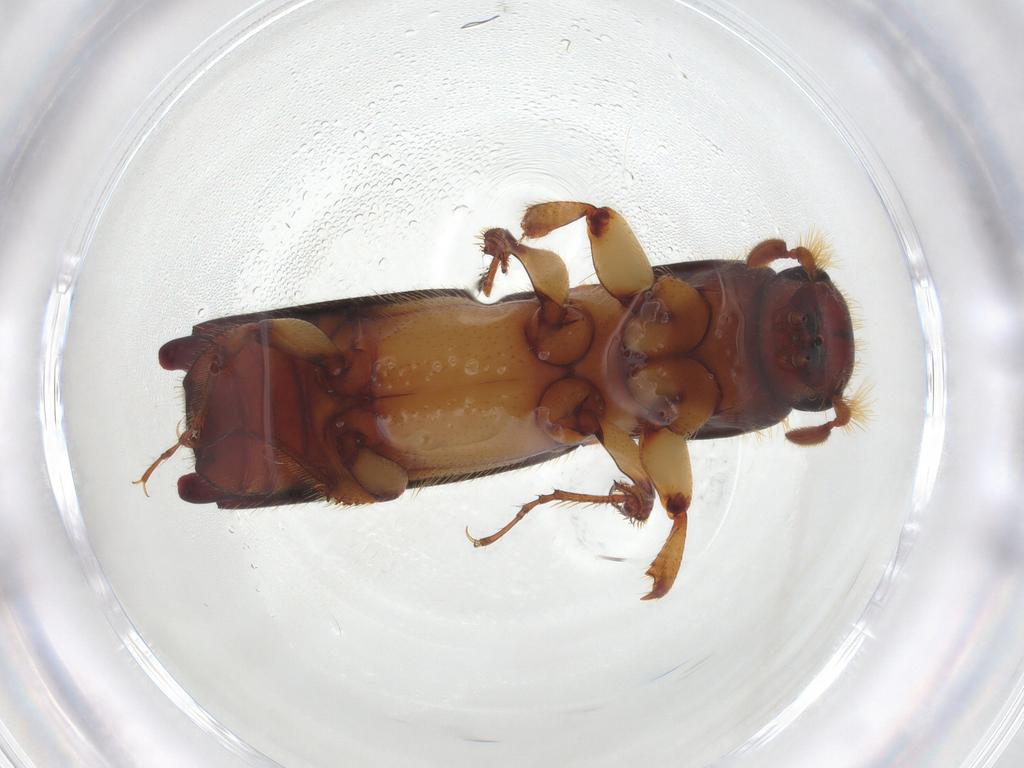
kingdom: Animalia
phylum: Arthropoda
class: Insecta
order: Coleoptera
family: Curculionidae
